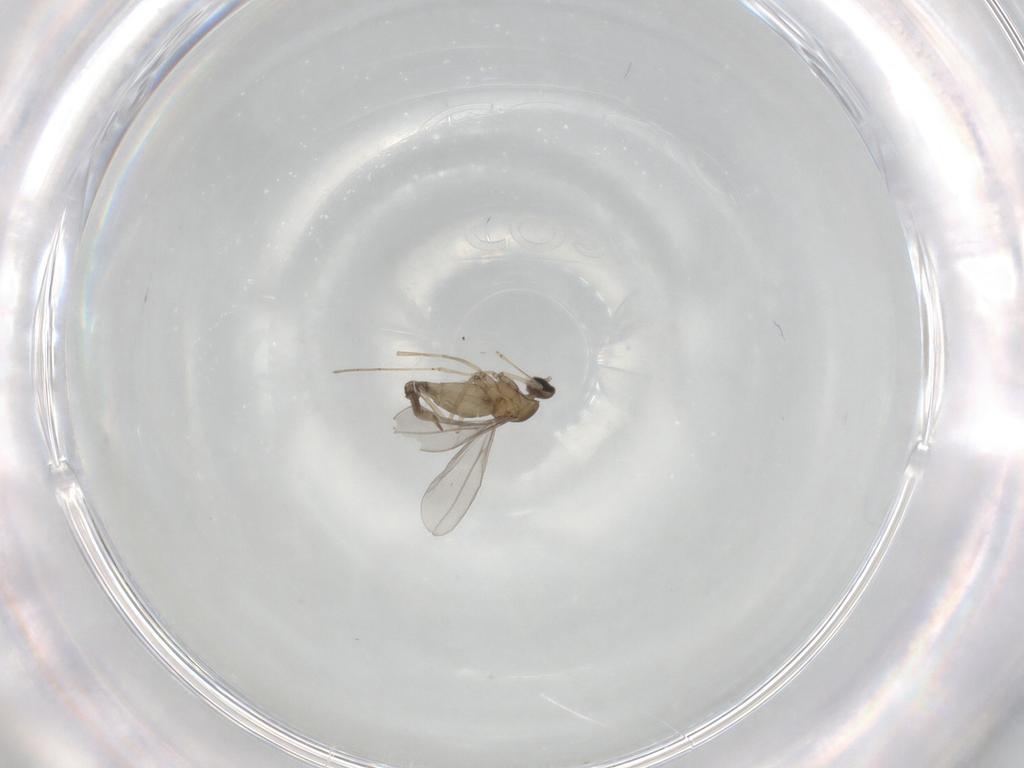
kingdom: Animalia
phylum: Arthropoda
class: Insecta
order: Diptera
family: Cecidomyiidae
